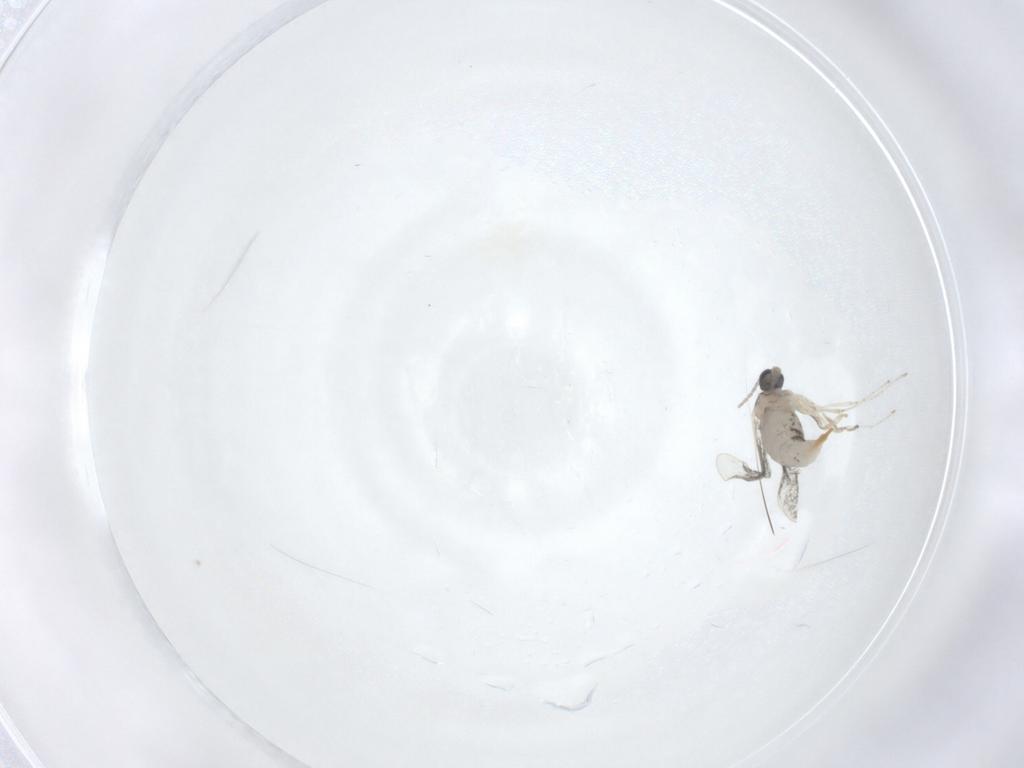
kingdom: Animalia
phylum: Arthropoda
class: Insecta
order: Diptera
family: Cecidomyiidae
